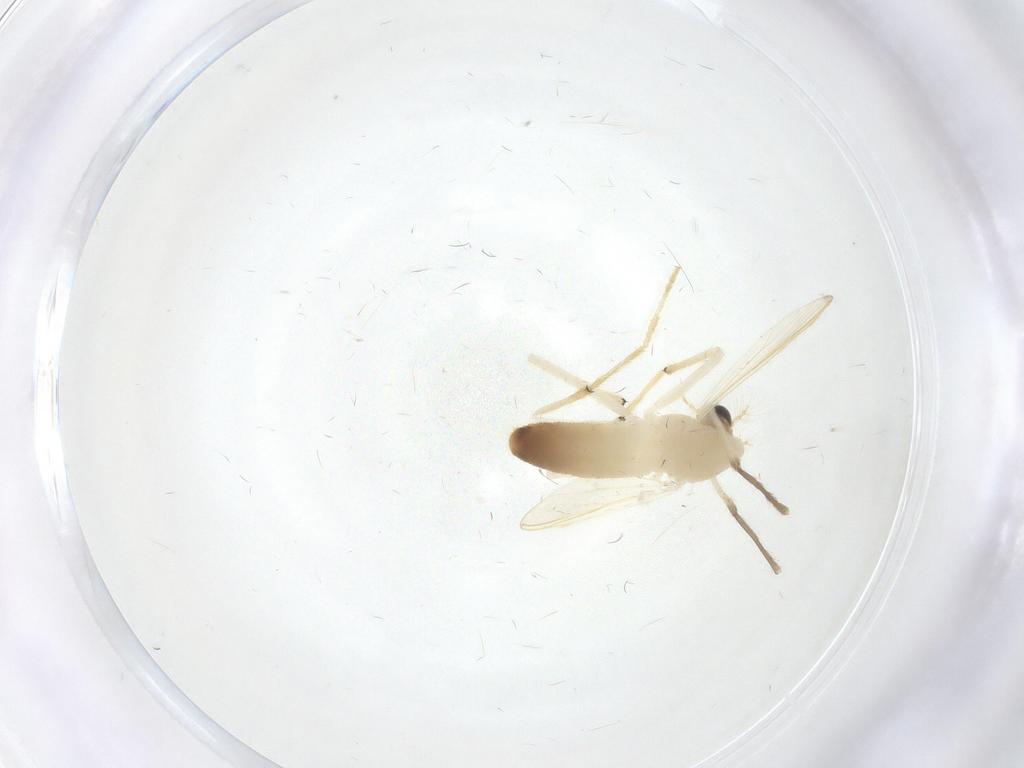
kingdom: Animalia
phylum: Arthropoda
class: Insecta
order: Diptera
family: Chironomidae
